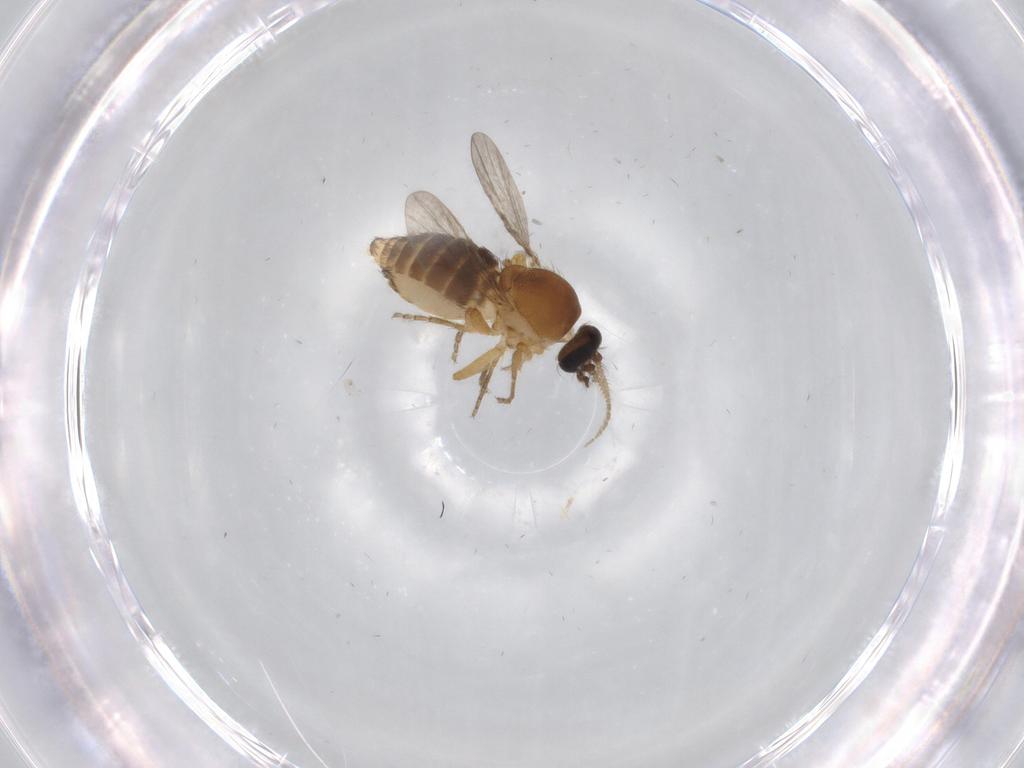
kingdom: Animalia
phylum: Arthropoda
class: Insecta
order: Diptera
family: Ceratopogonidae
